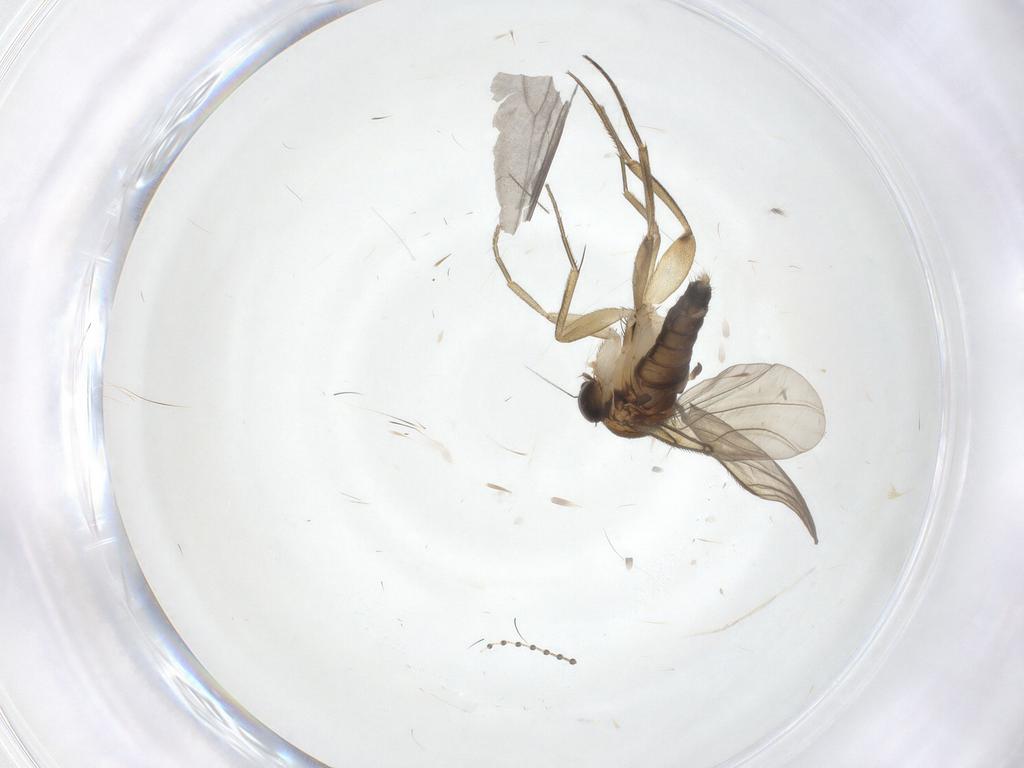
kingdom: Animalia
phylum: Arthropoda
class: Insecta
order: Diptera
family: Phoridae
